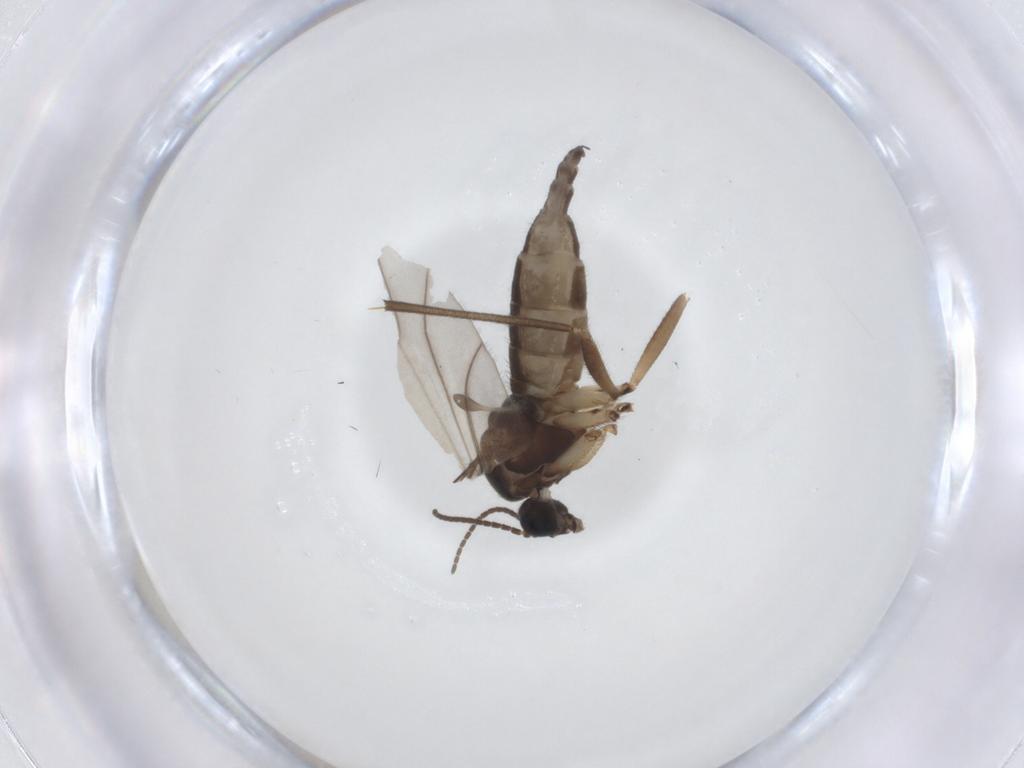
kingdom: Animalia
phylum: Arthropoda
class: Insecta
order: Diptera
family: Sciaridae
